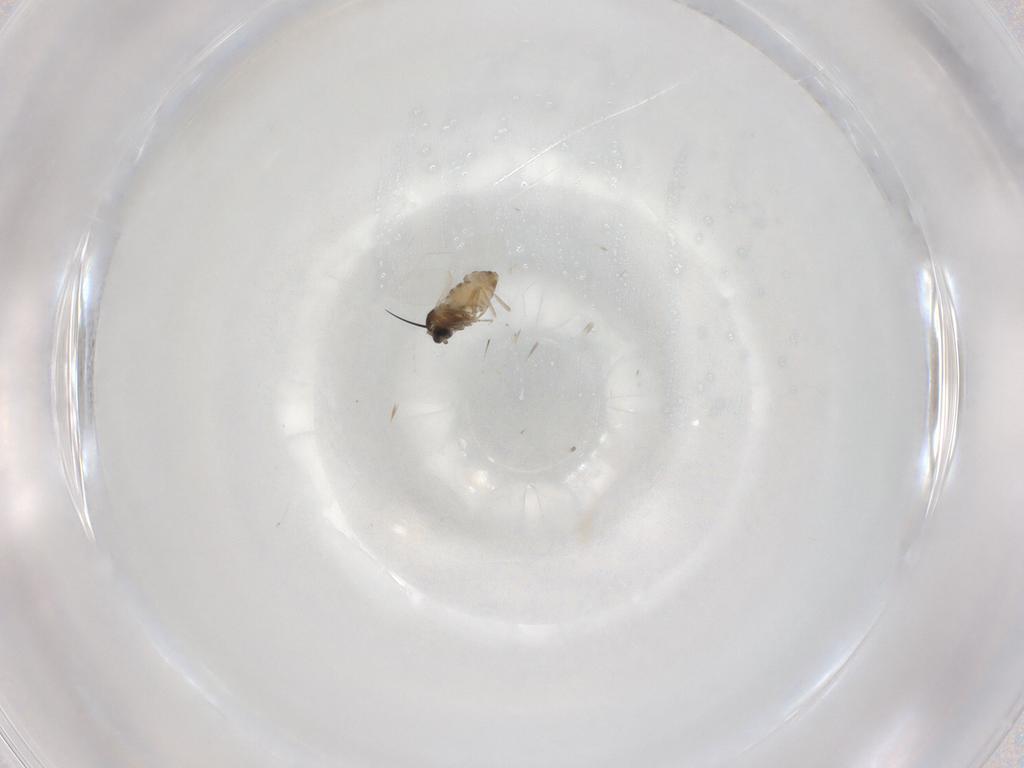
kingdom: Animalia
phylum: Arthropoda
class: Insecta
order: Diptera
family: Cecidomyiidae
